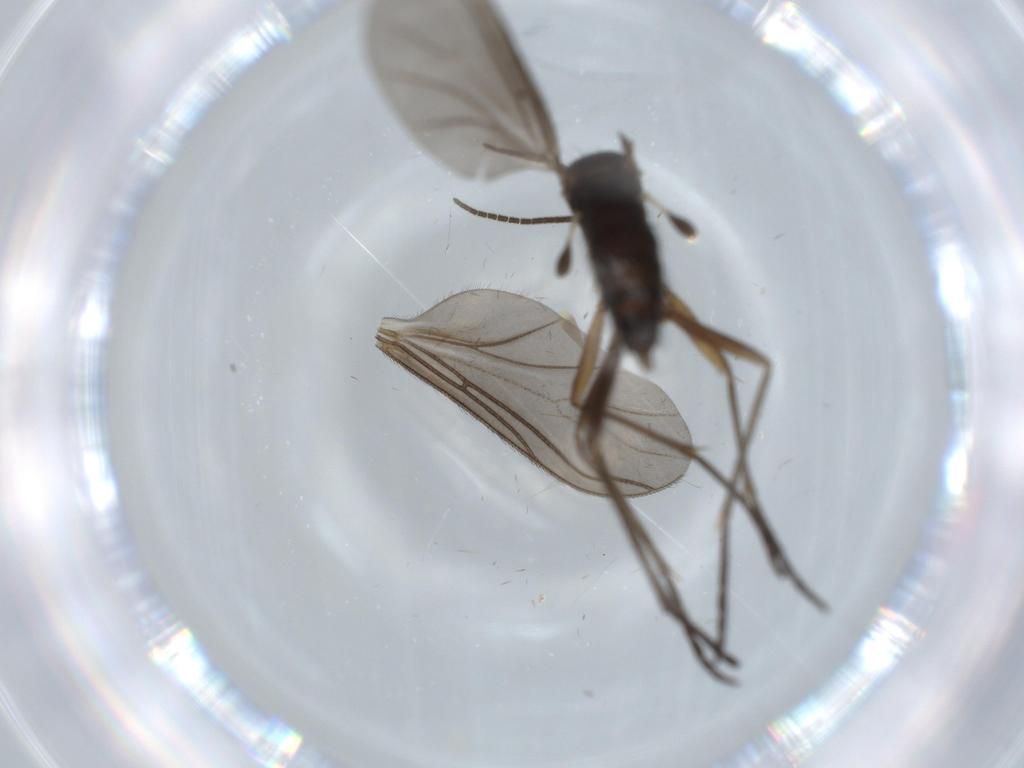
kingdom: Animalia
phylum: Arthropoda
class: Insecta
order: Diptera
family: Sciaridae
